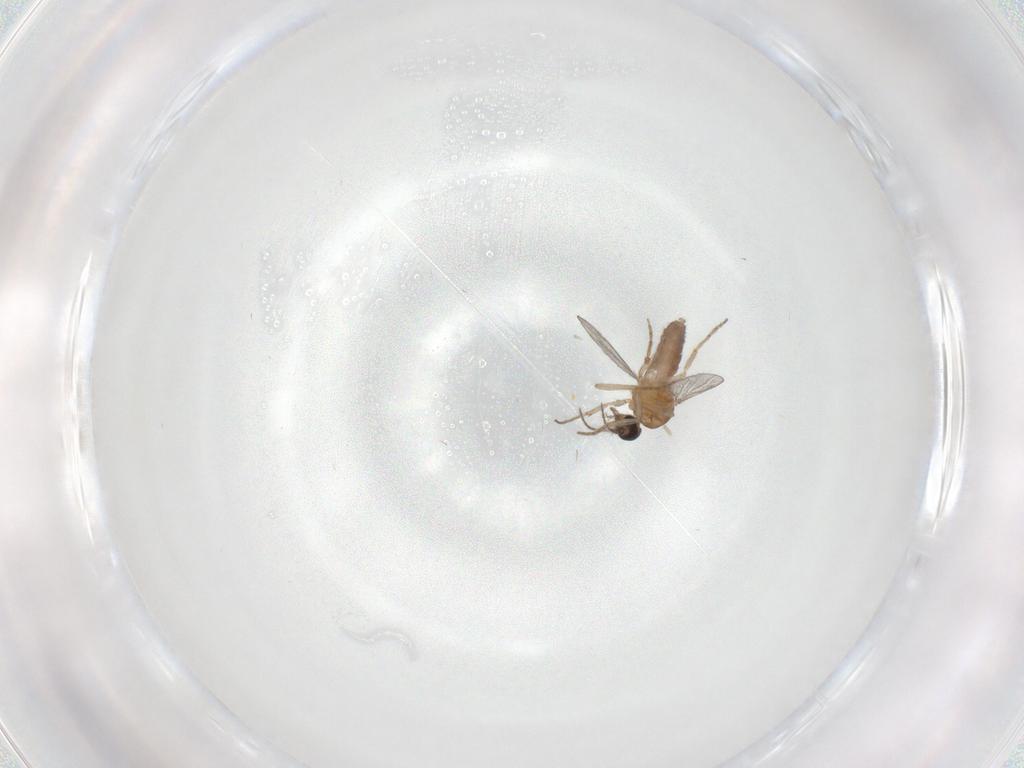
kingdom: Animalia
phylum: Arthropoda
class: Insecta
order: Diptera
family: Ceratopogonidae
